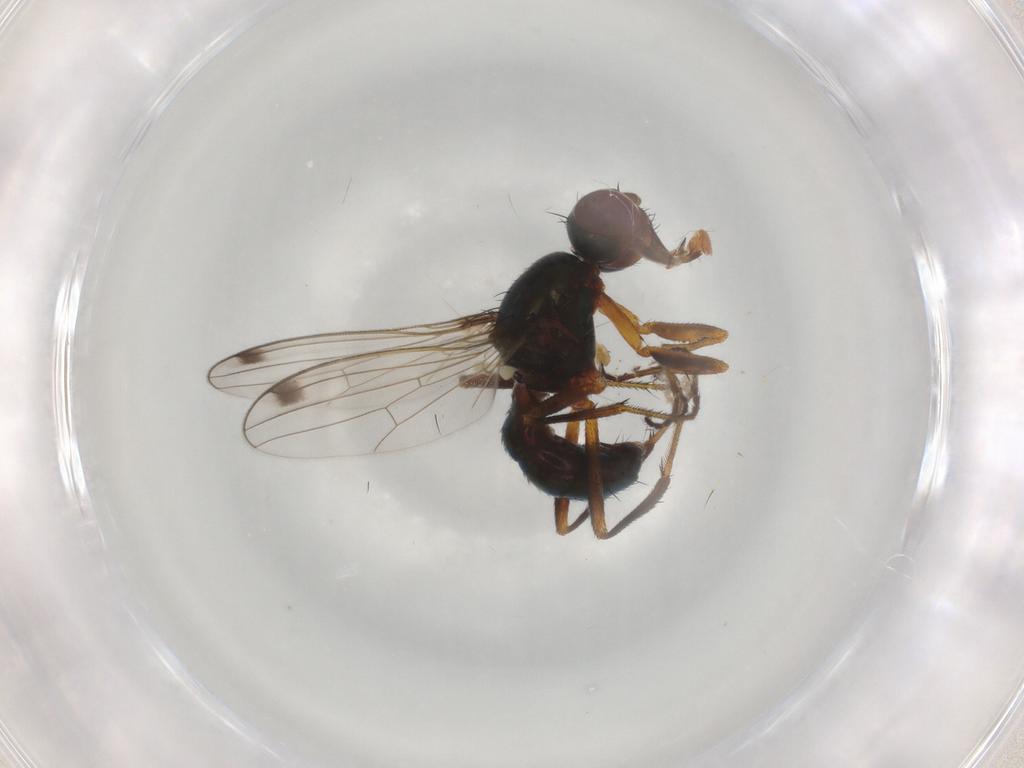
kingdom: Animalia
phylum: Arthropoda
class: Insecta
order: Diptera
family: Sepsidae
